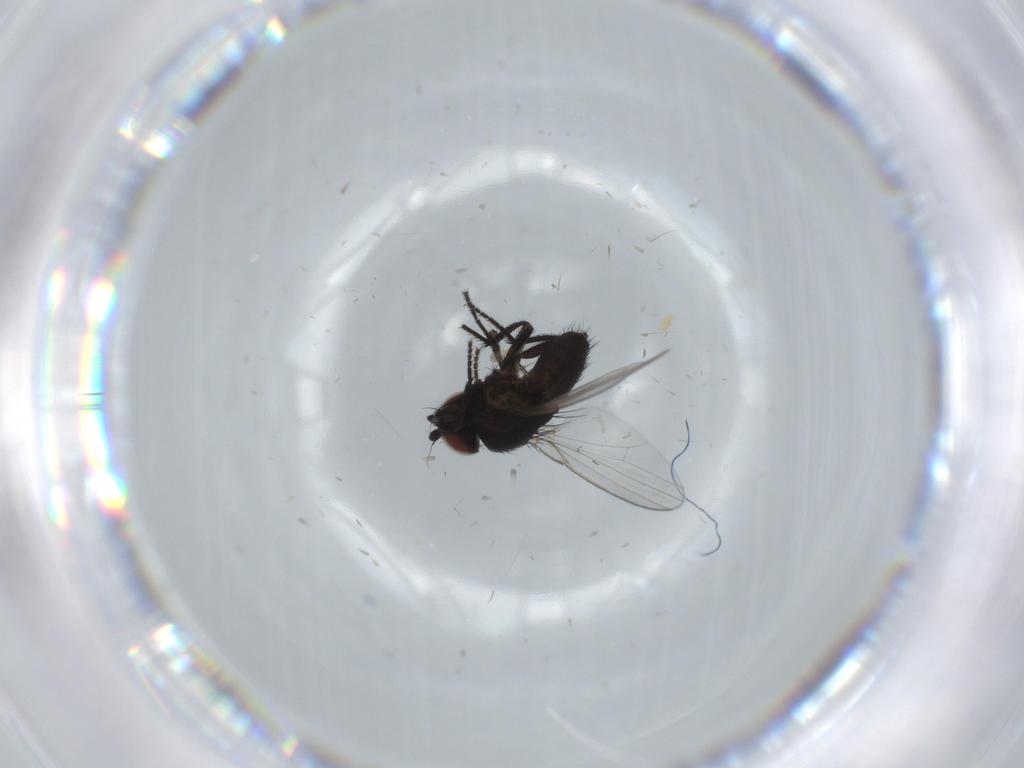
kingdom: Animalia
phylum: Arthropoda
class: Insecta
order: Diptera
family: Milichiidae
